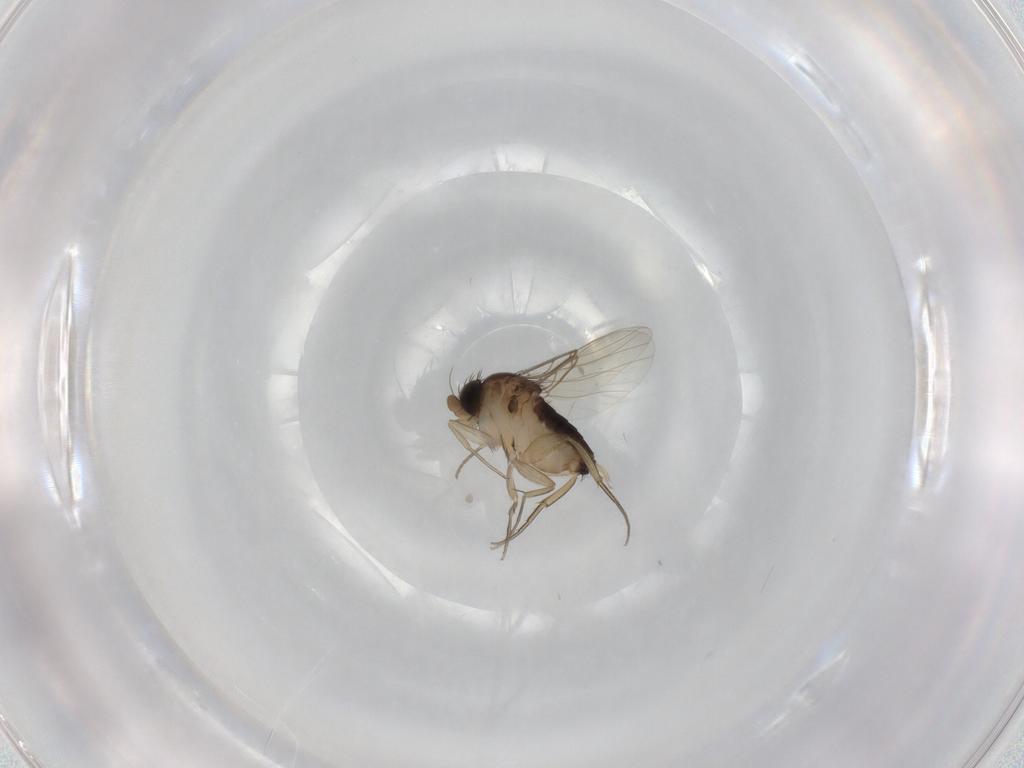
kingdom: Animalia
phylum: Arthropoda
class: Insecta
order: Diptera
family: Phoridae
